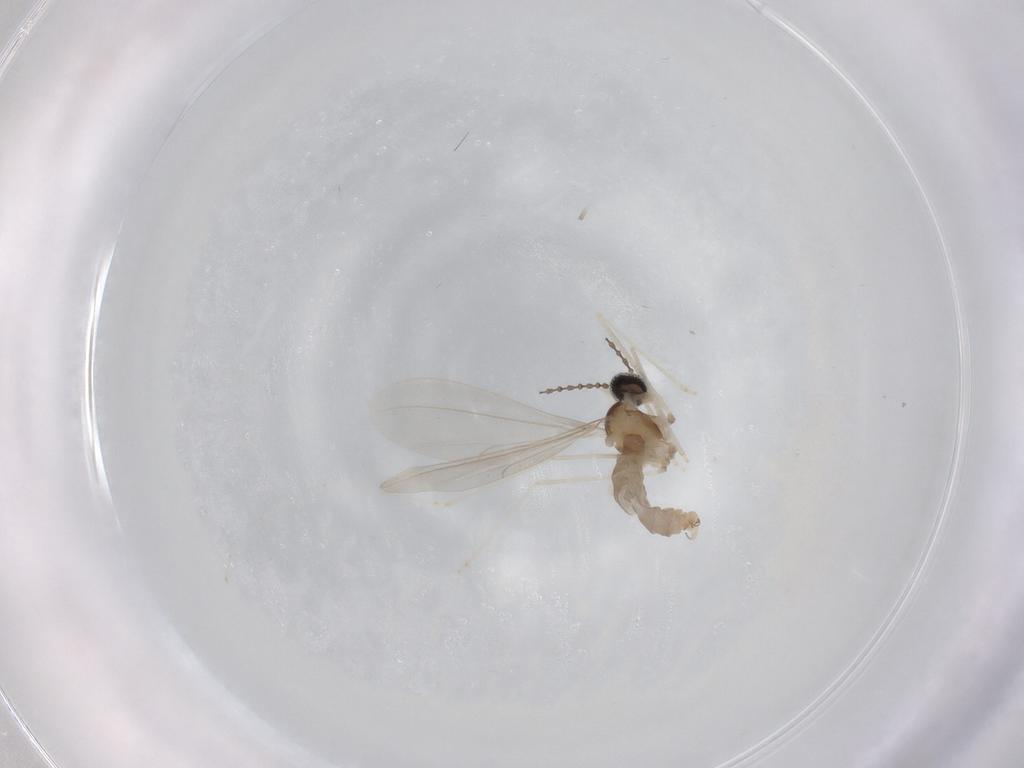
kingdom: Animalia
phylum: Arthropoda
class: Insecta
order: Diptera
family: Cecidomyiidae
